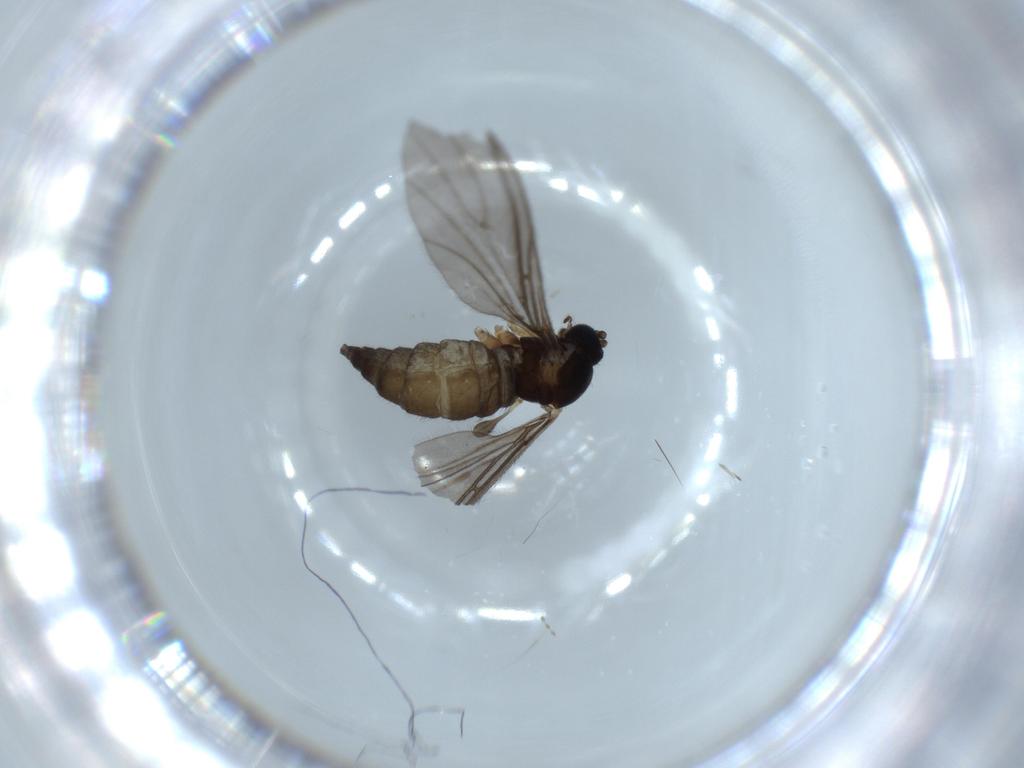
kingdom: Animalia
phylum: Arthropoda
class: Insecta
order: Diptera
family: Sciaridae
